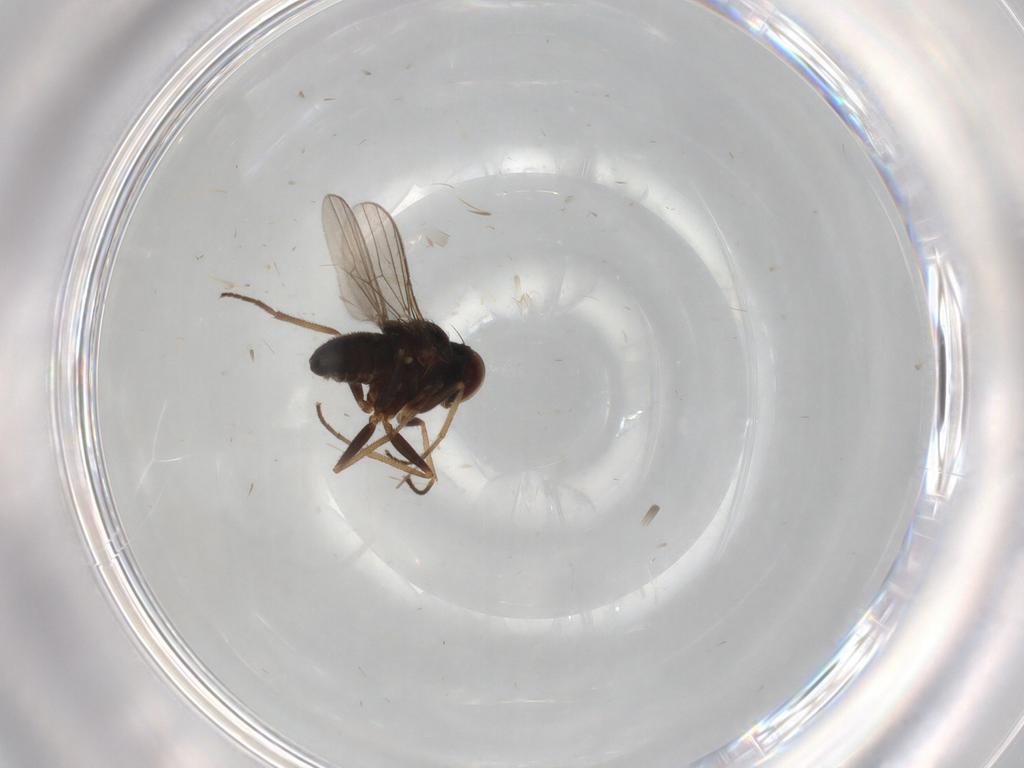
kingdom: Animalia
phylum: Arthropoda
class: Insecta
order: Diptera
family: Dolichopodidae
